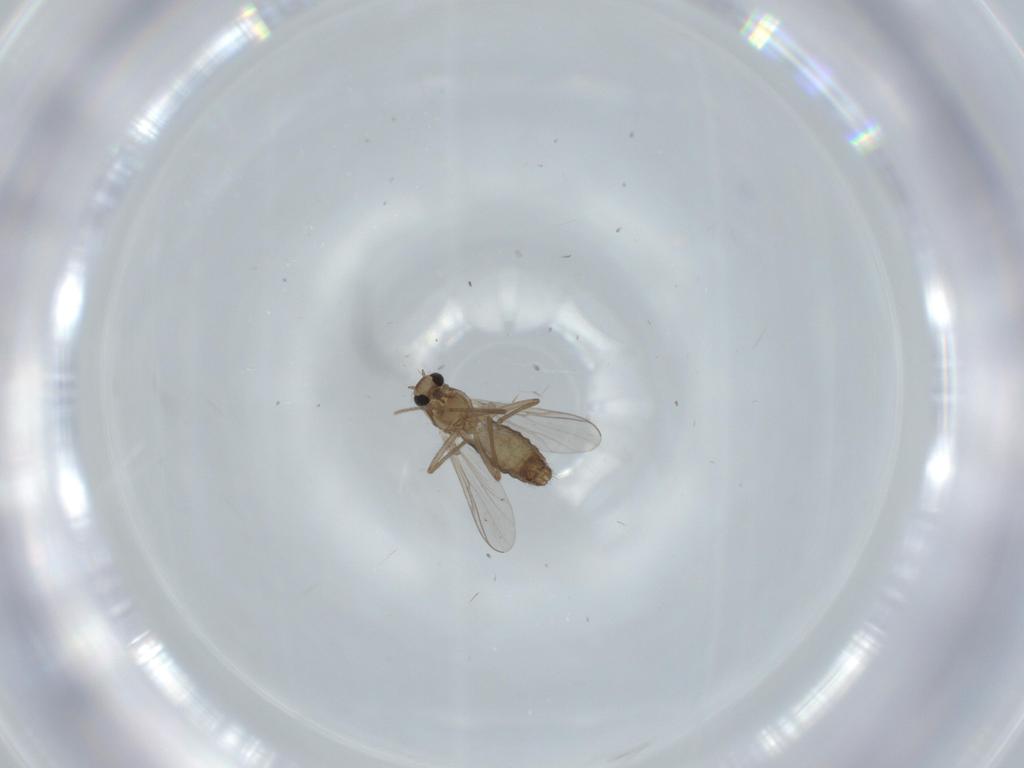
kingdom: Animalia
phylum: Arthropoda
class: Insecta
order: Diptera
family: Chironomidae
